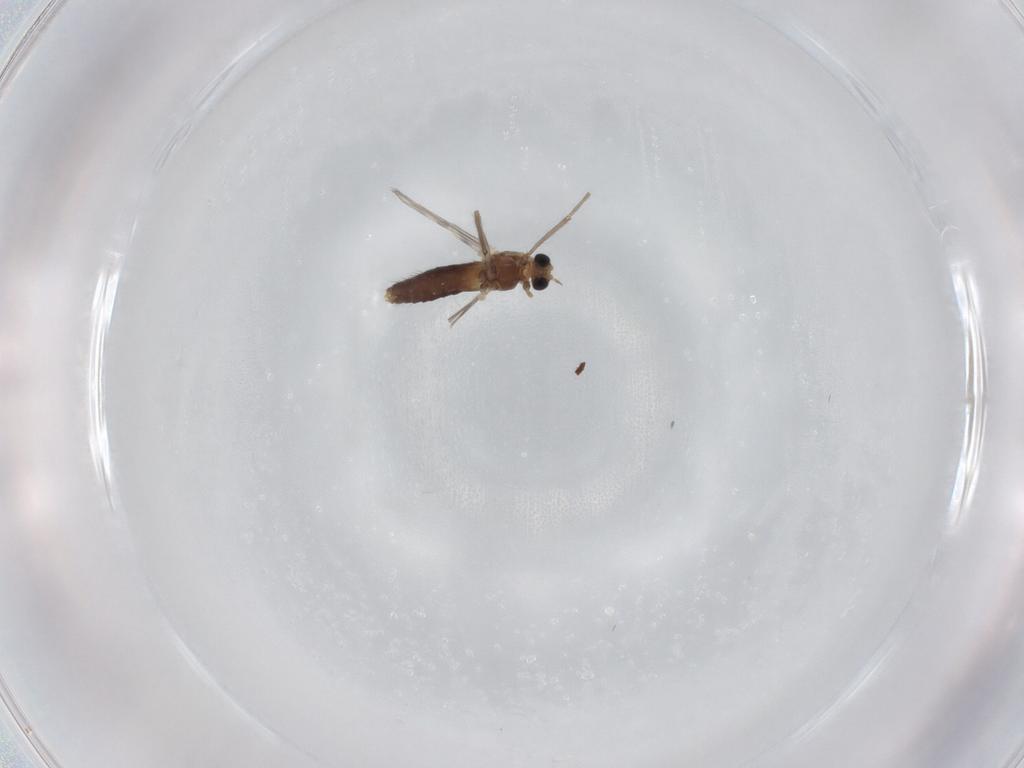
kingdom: Animalia
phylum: Arthropoda
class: Insecta
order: Diptera
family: Chironomidae
